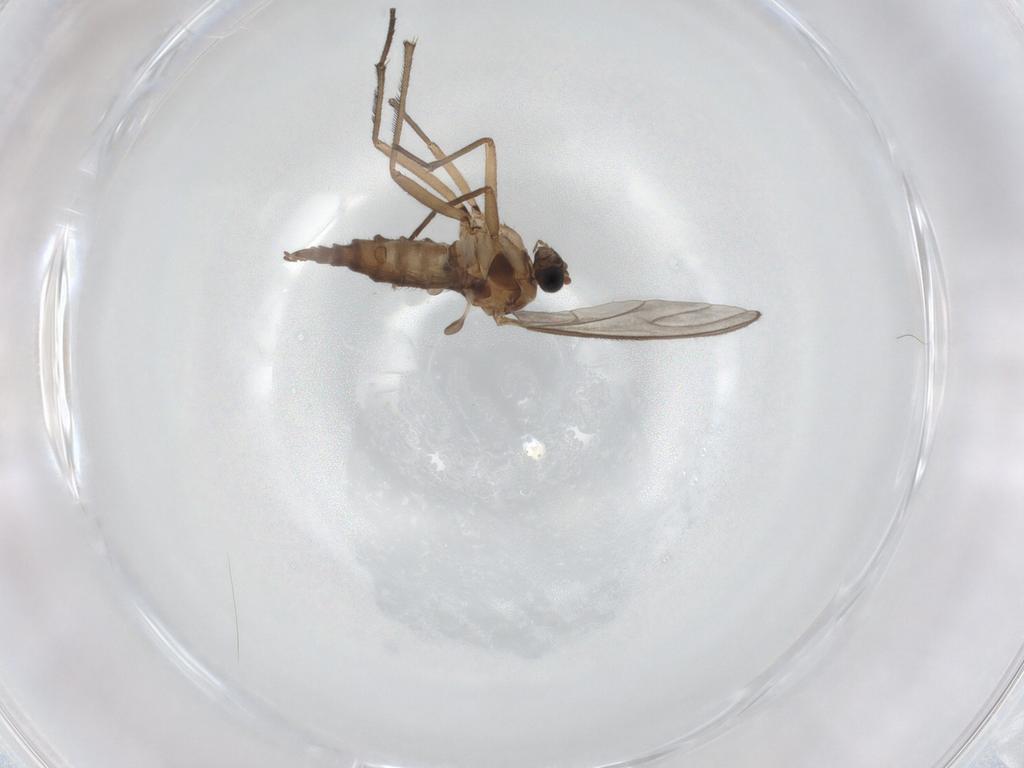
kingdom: Animalia
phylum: Arthropoda
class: Insecta
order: Diptera
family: Sciaridae
